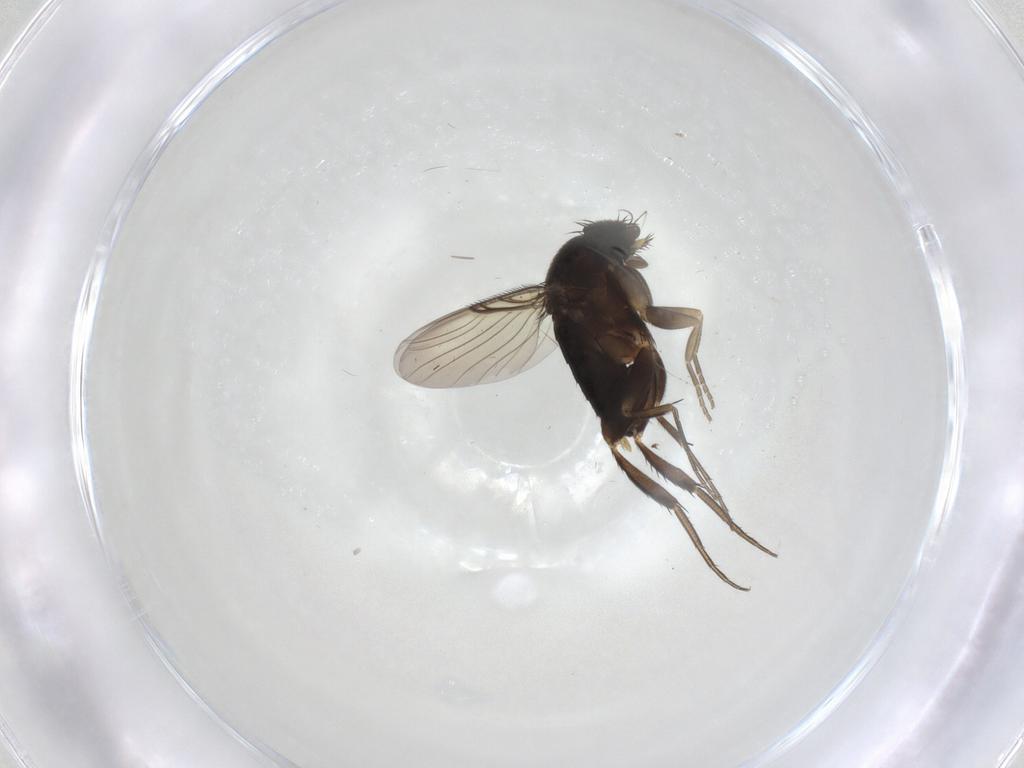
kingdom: Animalia
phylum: Arthropoda
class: Insecta
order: Diptera
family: Phoridae
